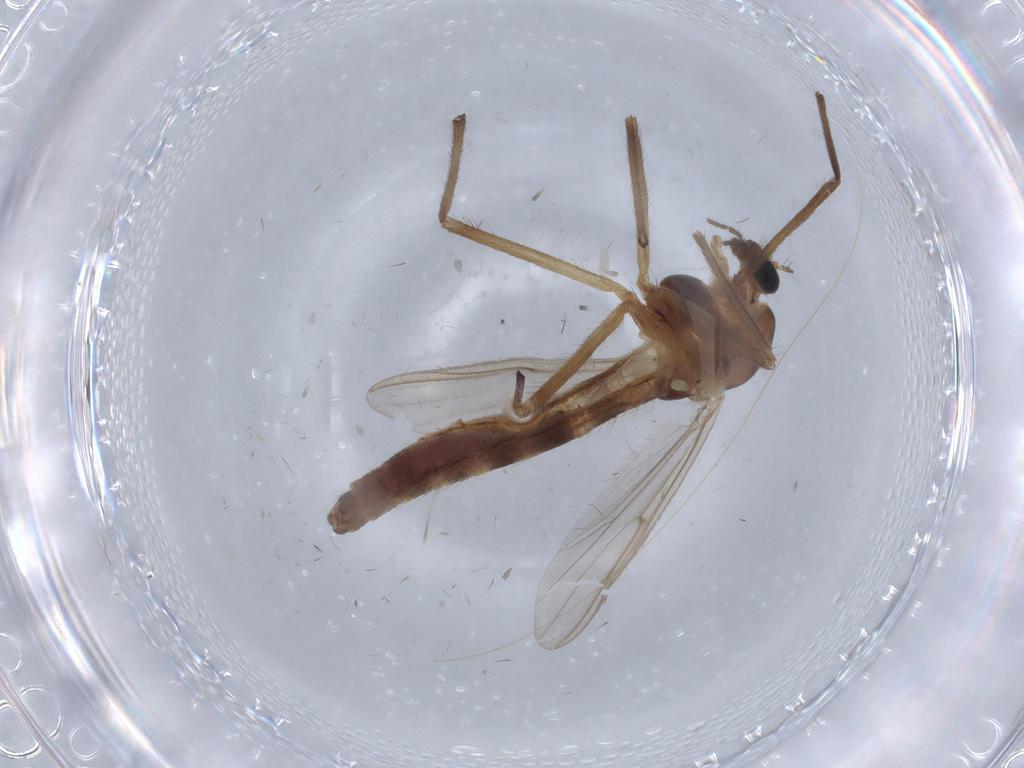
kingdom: Animalia
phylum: Arthropoda
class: Insecta
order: Diptera
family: Chironomidae
